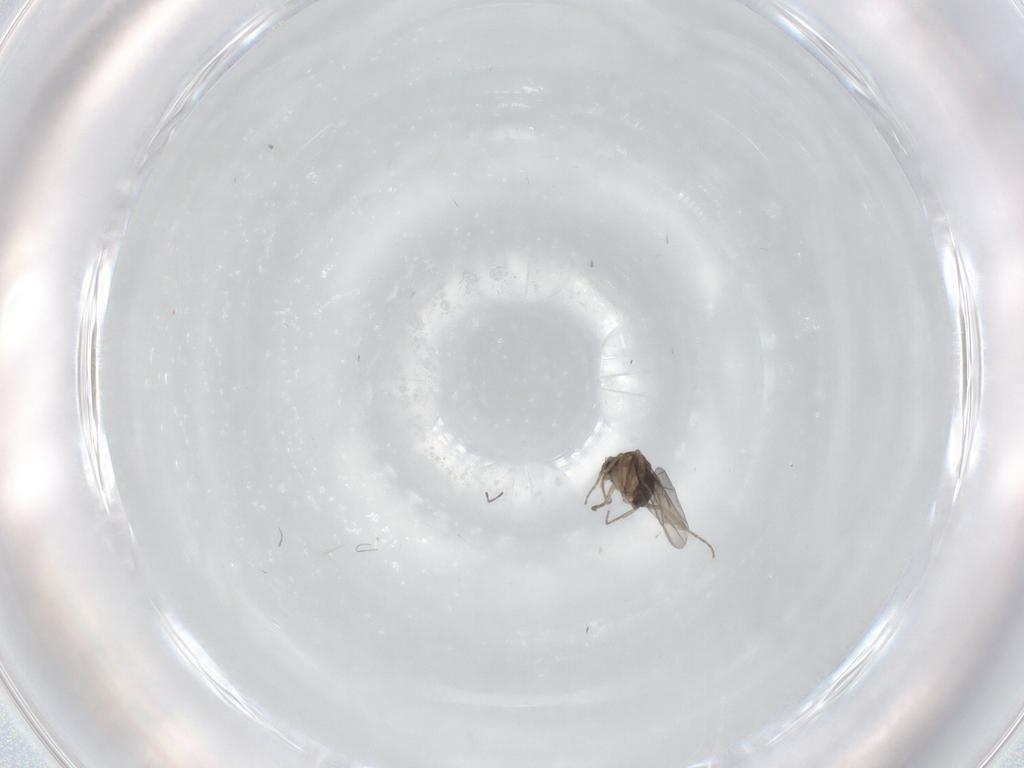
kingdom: Animalia
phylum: Arthropoda
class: Insecta
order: Diptera
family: Phoridae
